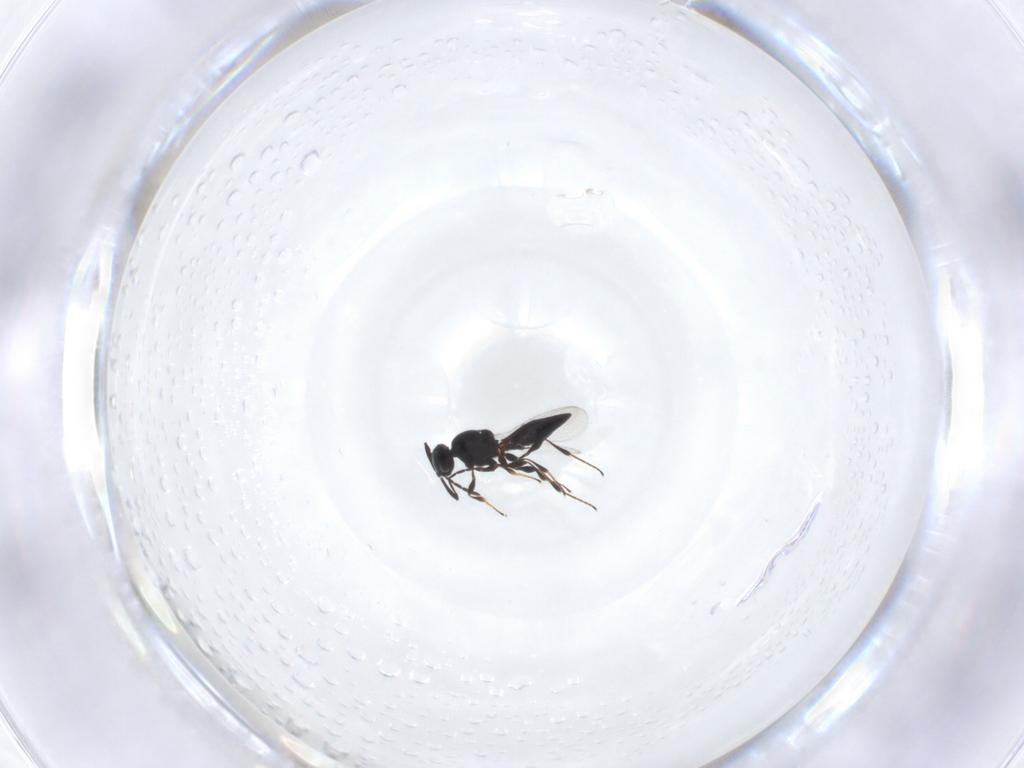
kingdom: Animalia
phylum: Arthropoda
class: Insecta
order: Hymenoptera
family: Platygastridae
